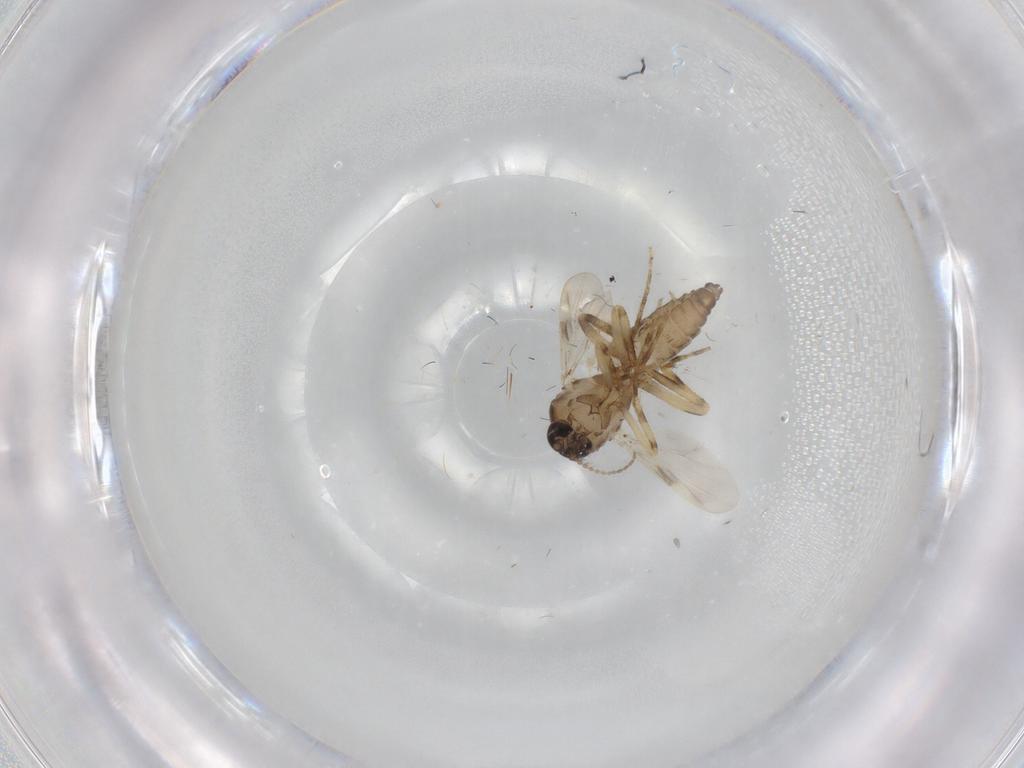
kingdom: Animalia
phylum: Arthropoda
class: Insecta
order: Diptera
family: Ceratopogonidae
